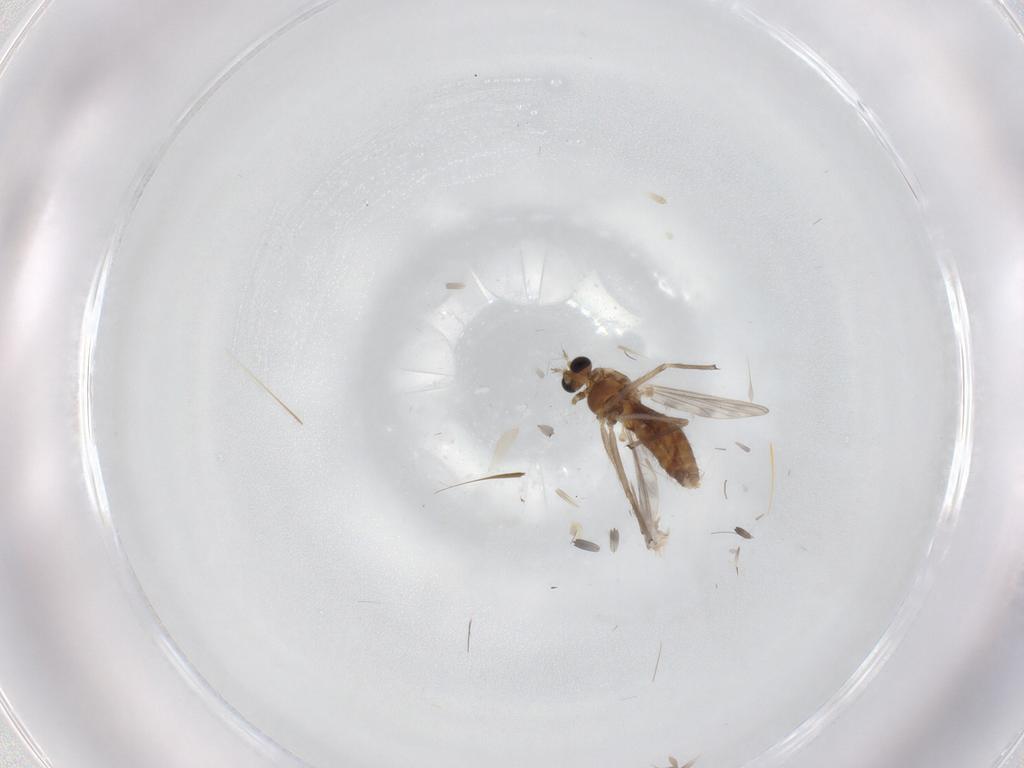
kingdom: Animalia
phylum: Arthropoda
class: Insecta
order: Diptera
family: Chironomidae
